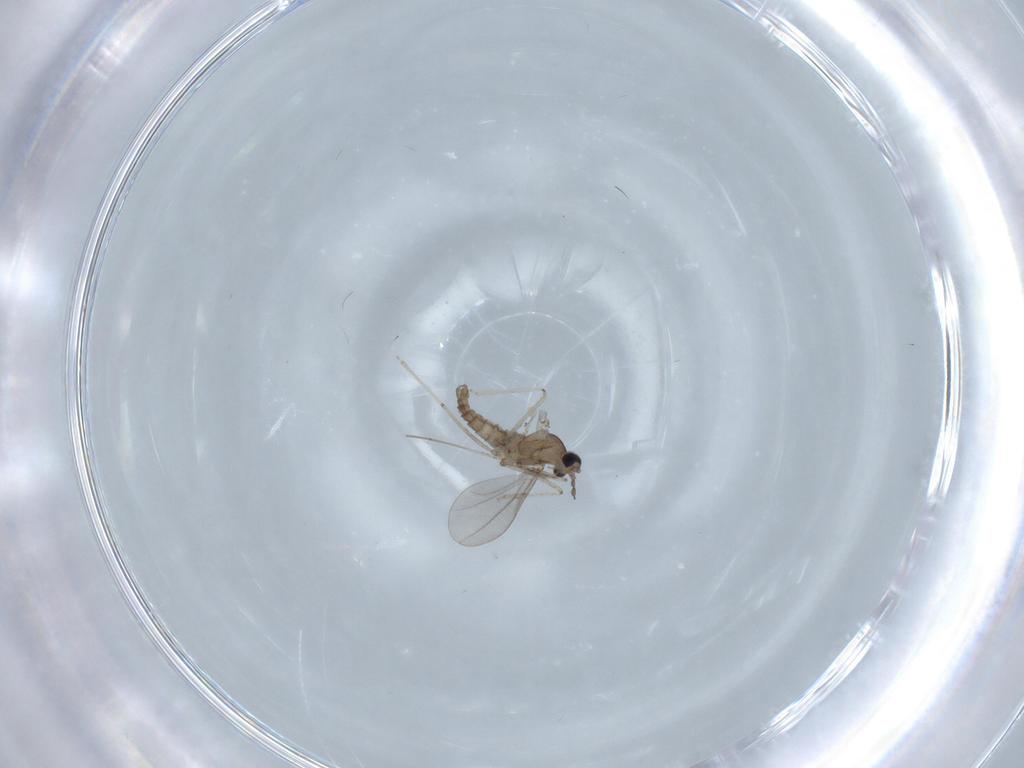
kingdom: Animalia
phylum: Arthropoda
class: Insecta
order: Diptera
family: Cecidomyiidae
